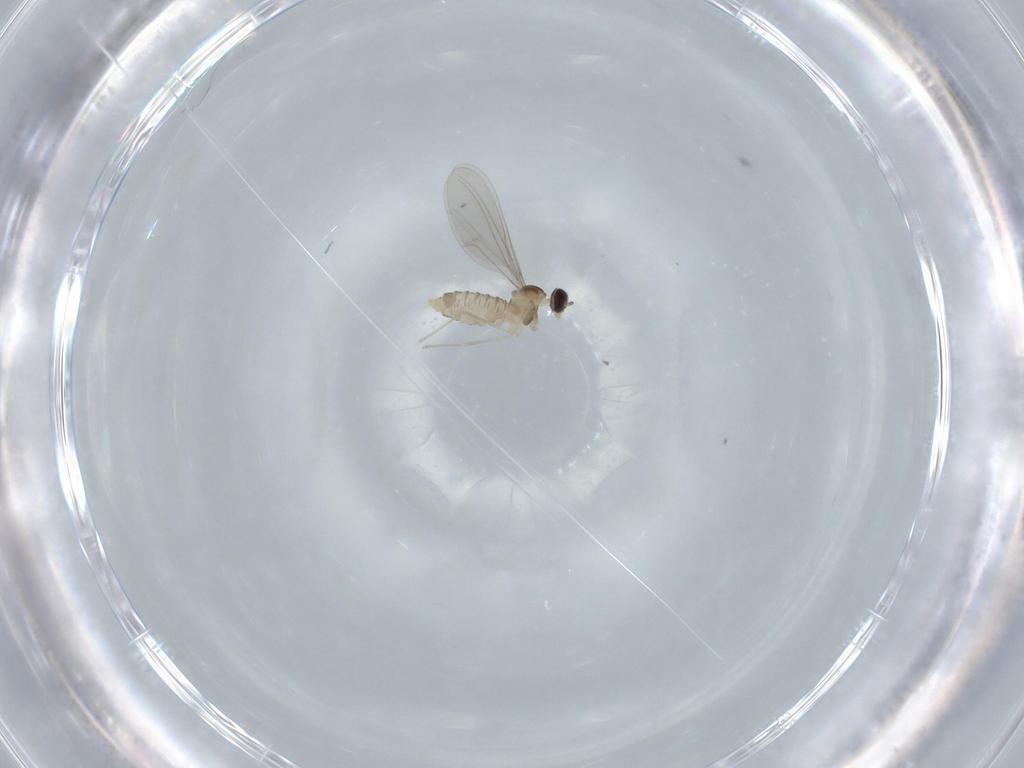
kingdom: Animalia
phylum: Arthropoda
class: Insecta
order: Diptera
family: Cecidomyiidae
